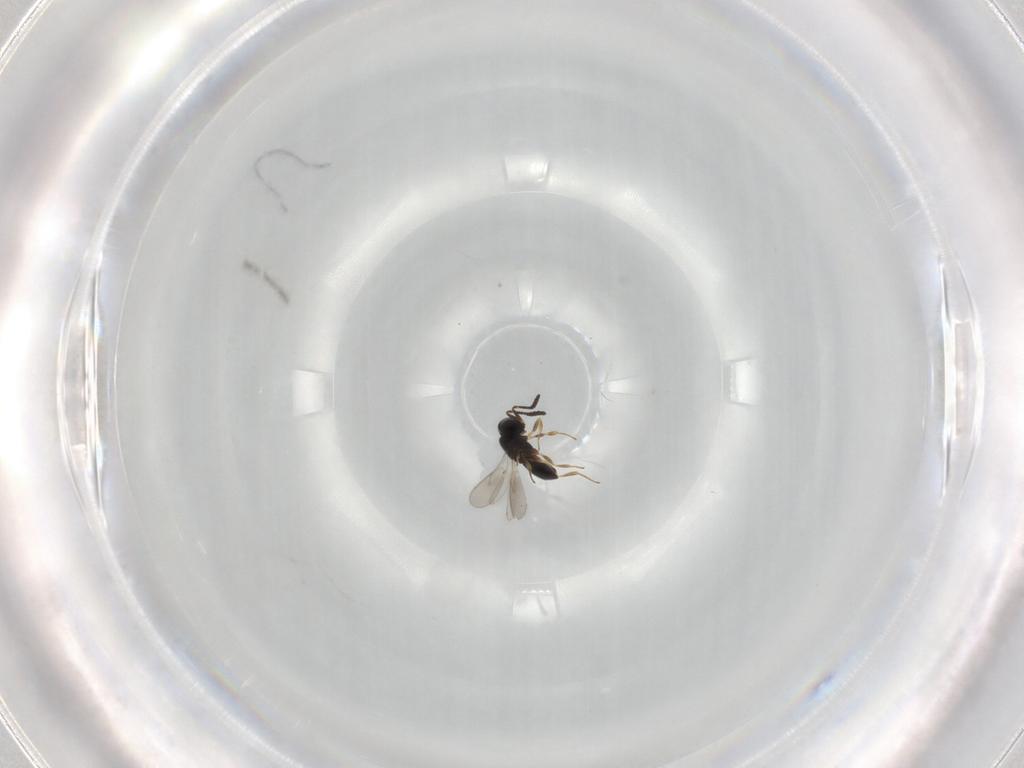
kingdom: Animalia
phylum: Arthropoda
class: Insecta
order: Hymenoptera
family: Scelionidae
